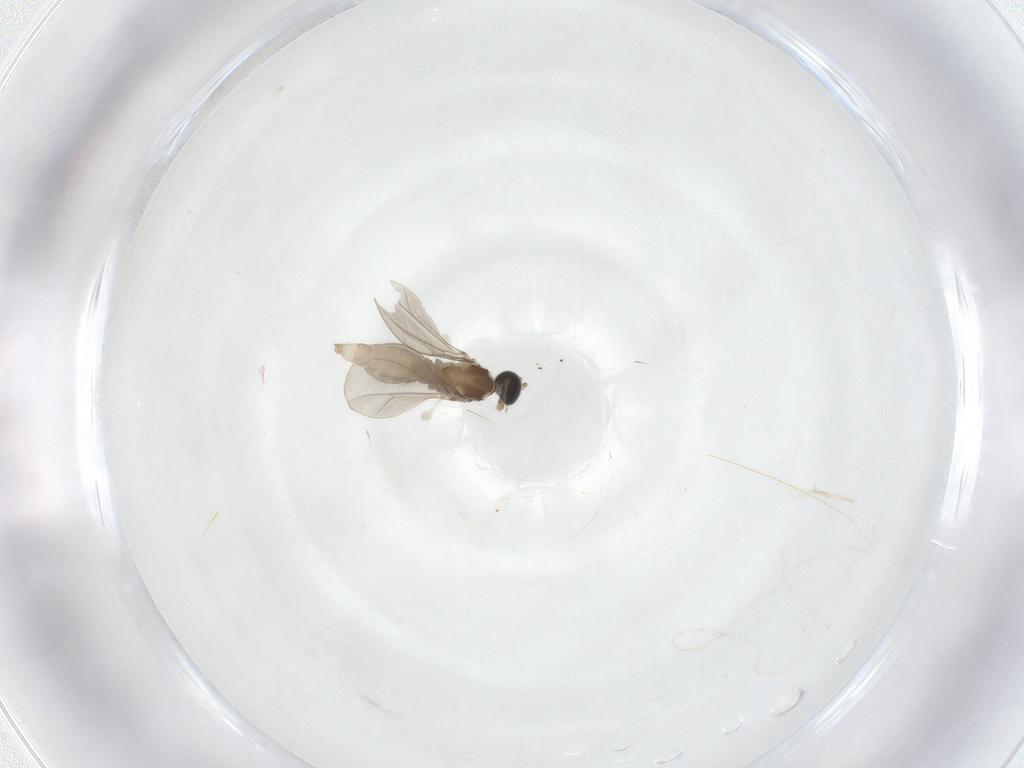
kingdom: Animalia
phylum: Arthropoda
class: Insecta
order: Diptera
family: Cecidomyiidae
